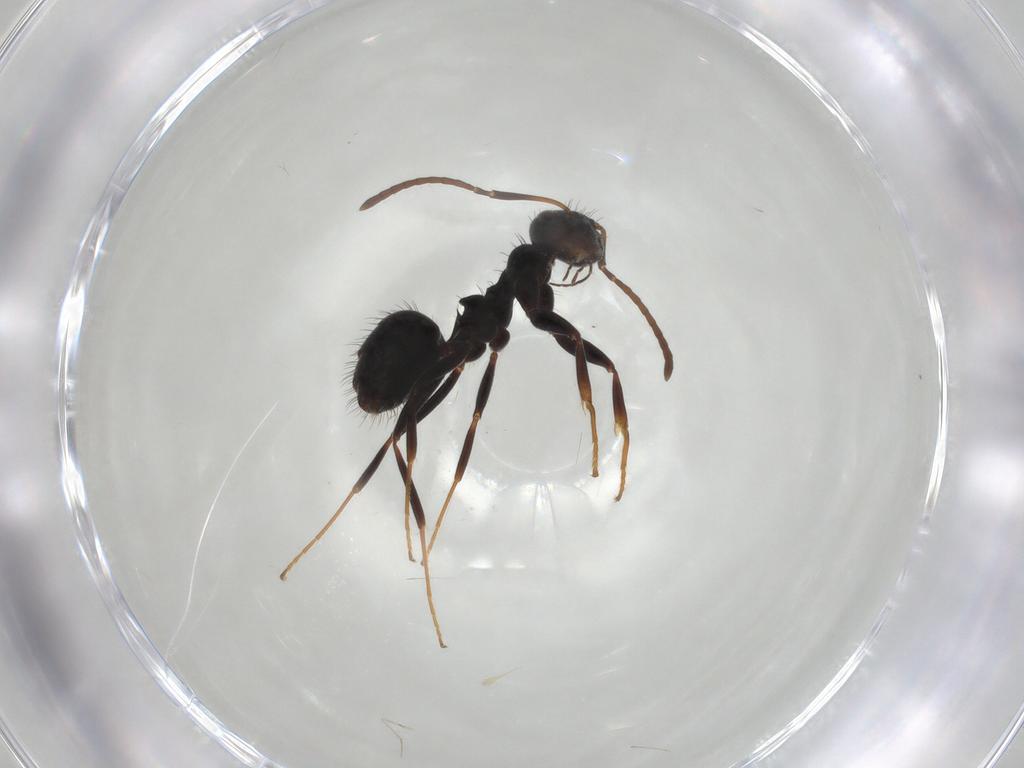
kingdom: Animalia
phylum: Arthropoda
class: Insecta
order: Hymenoptera
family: Formicidae
